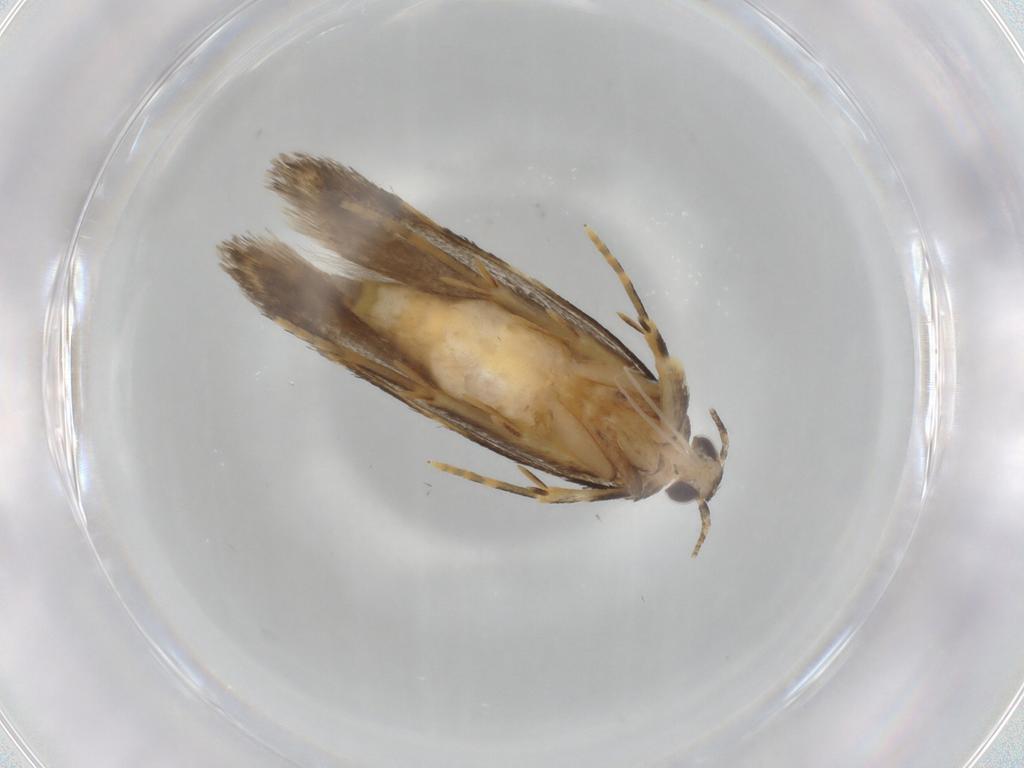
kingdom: Animalia
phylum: Arthropoda
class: Insecta
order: Lepidoptera
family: Autostichidae
